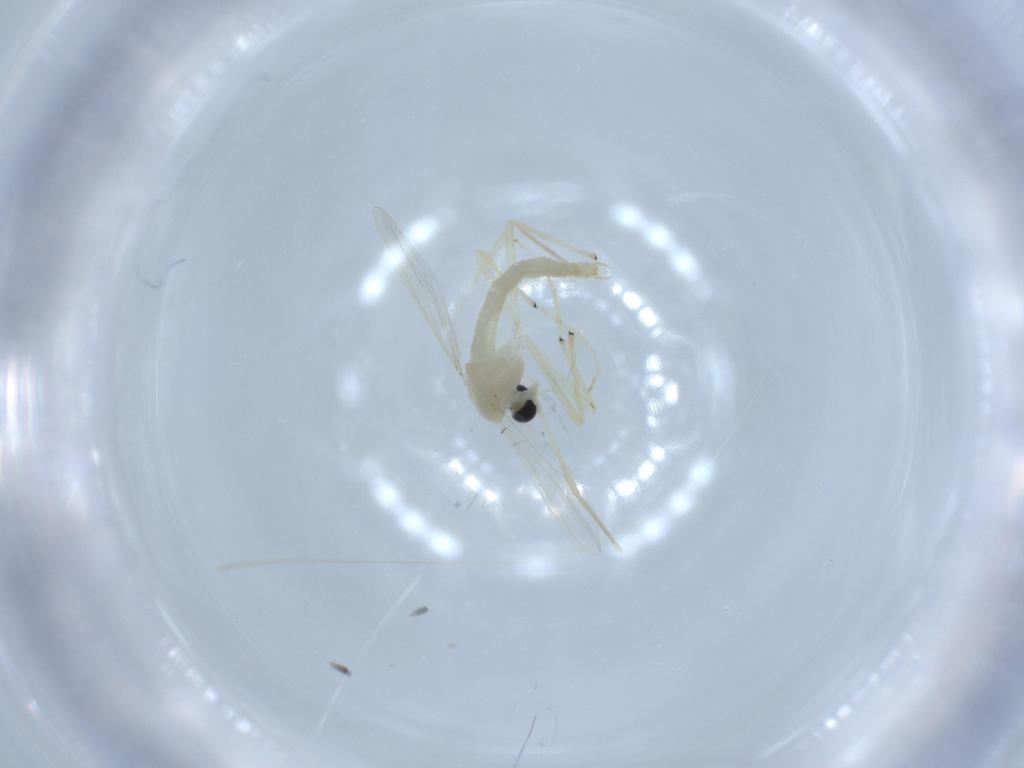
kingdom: Animalia
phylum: Arthropoda
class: Insecta
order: Diptera
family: Chironomidae
